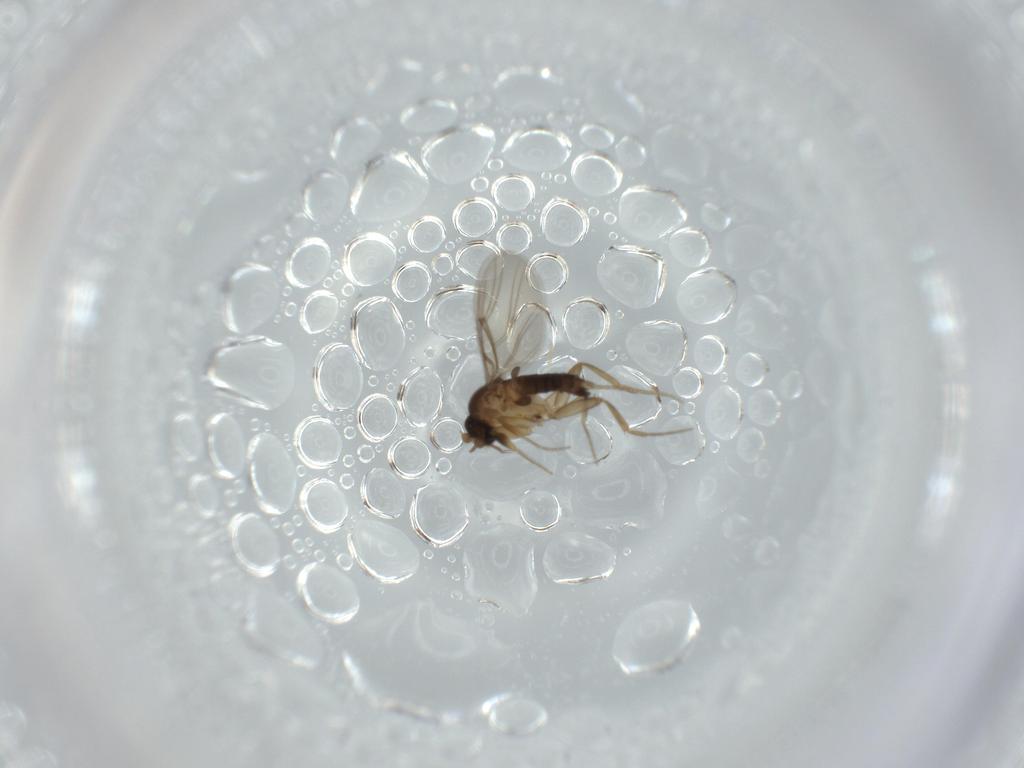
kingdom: Animalia
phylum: Arthropoda
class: Insecta
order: Diptera
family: Phoridae
